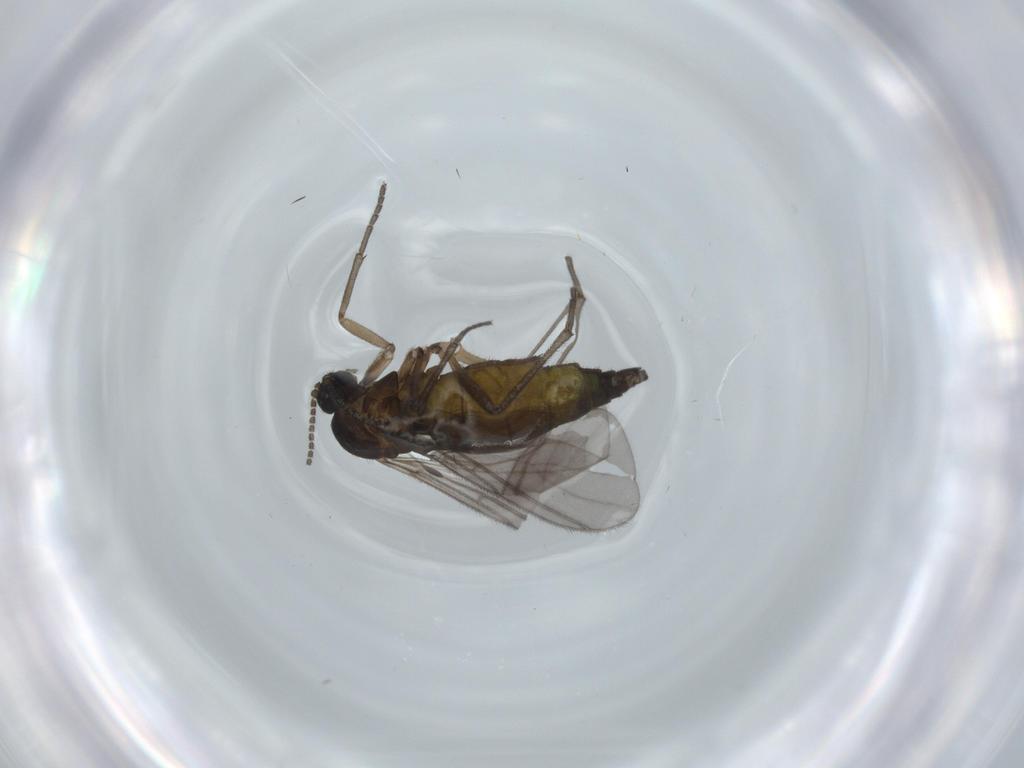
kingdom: Animalia
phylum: Arthropoda
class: Insecta
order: Diptera
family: Sciaridae
